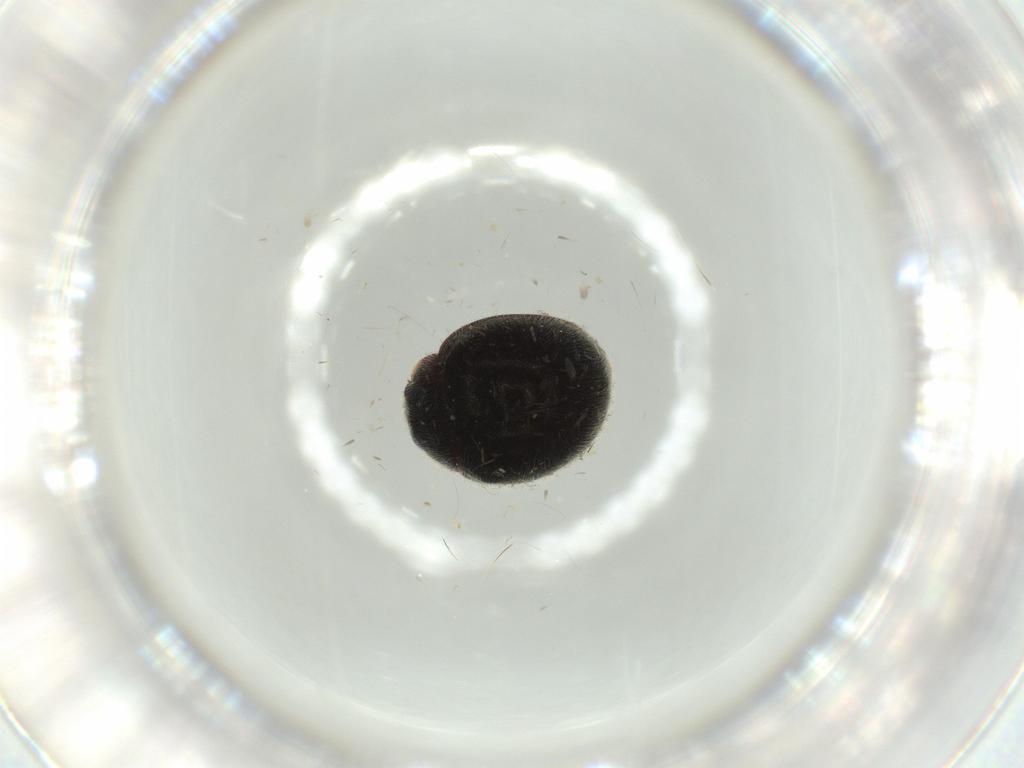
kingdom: Animalia
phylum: Arthropoda
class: Insecta
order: Coleoptera
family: Coccinellidae
